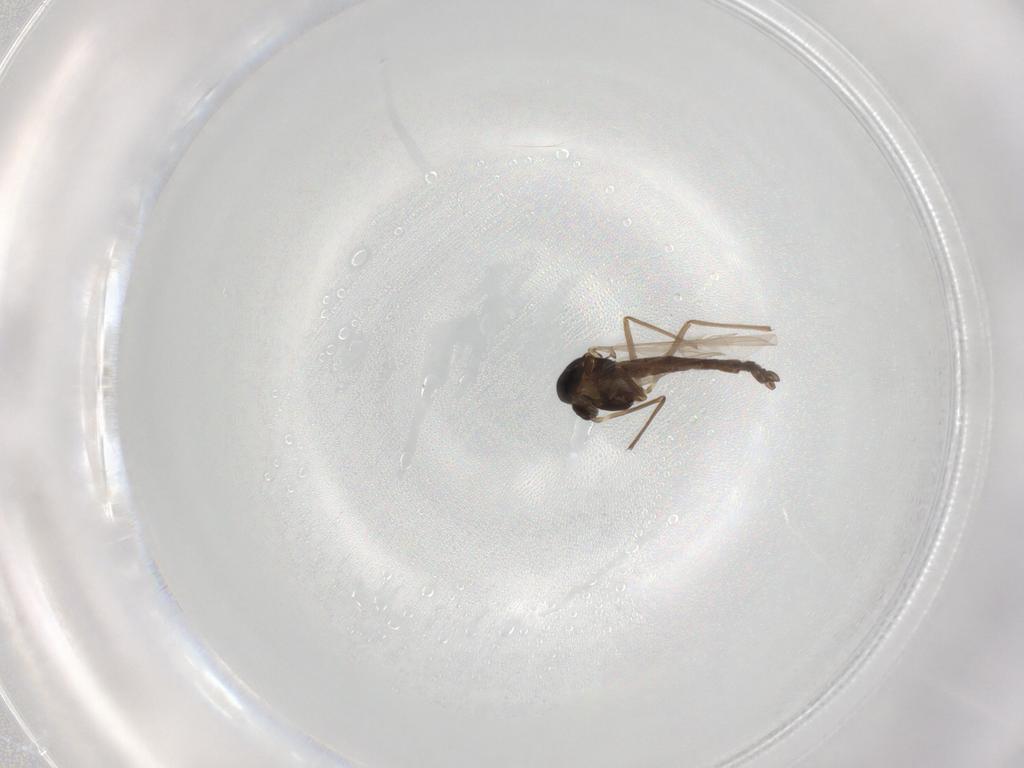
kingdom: Animalia
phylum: Arthropoda
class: Insecta
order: Diptera
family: Chironomidae
